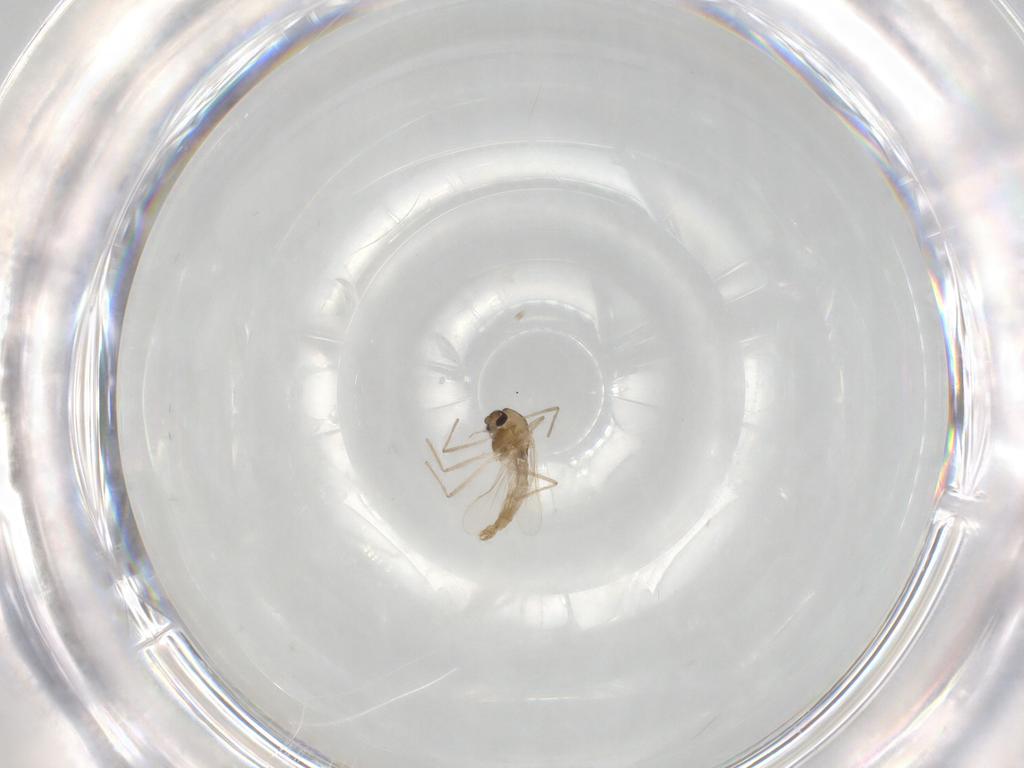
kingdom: Animalia
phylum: Arthropoda
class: Insecta
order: Diptera
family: Chironomidae
